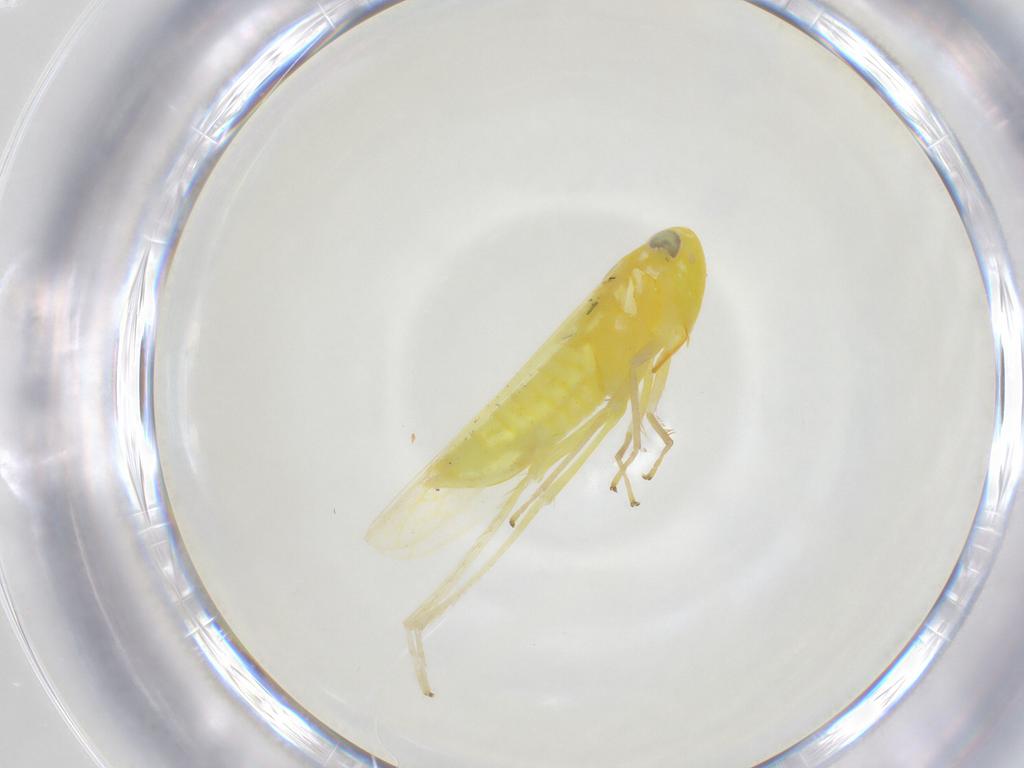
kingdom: Animalia
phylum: Arthropoda
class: Insecta
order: Hemiptera
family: Cicadellidae
